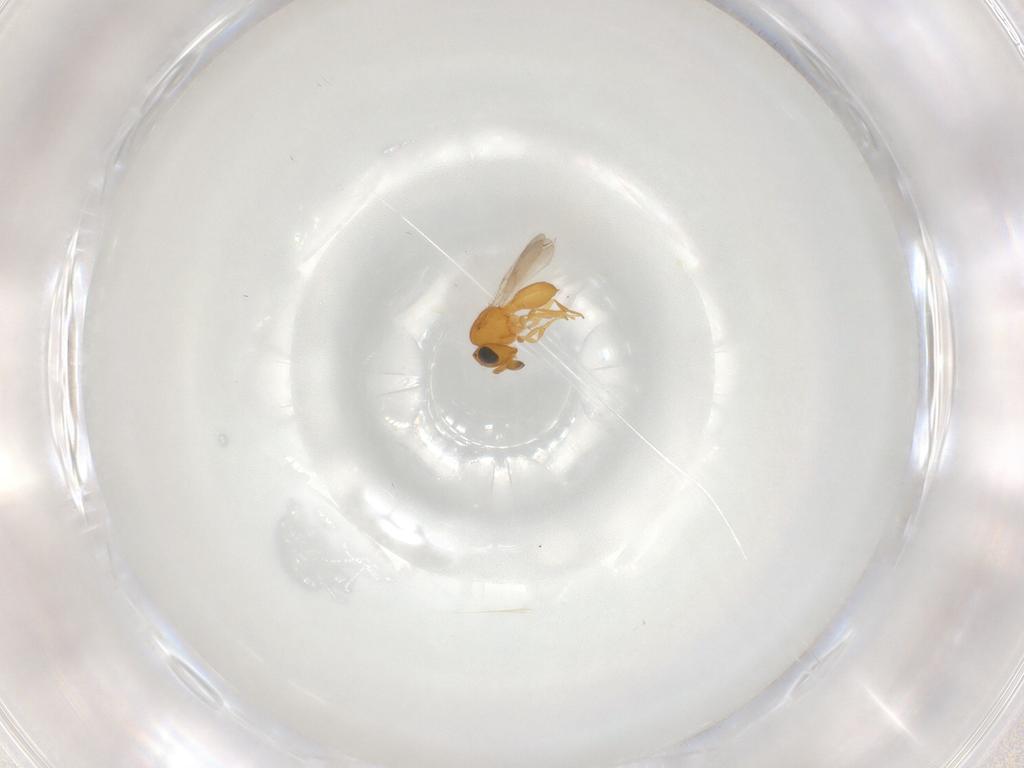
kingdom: Animalia
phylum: Arthropoda
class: Insecta
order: Hymenoptera
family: Scelionidae
